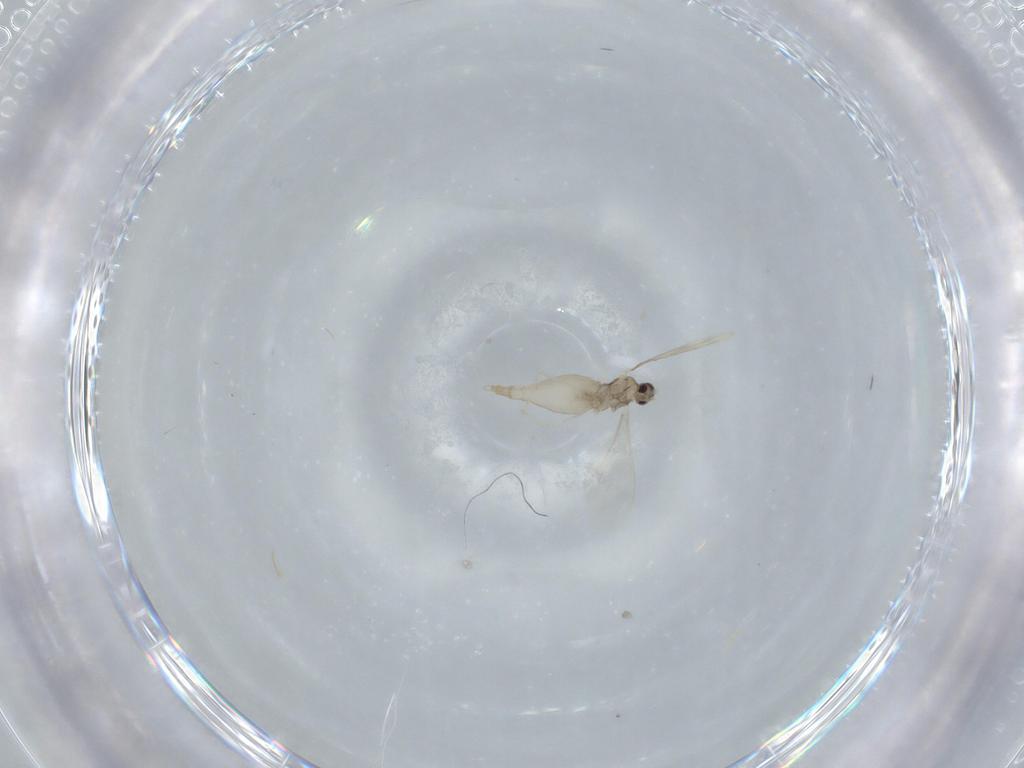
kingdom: Animalia
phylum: Arthropoda
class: Insecta
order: Diptera
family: Cecidomyiidae
